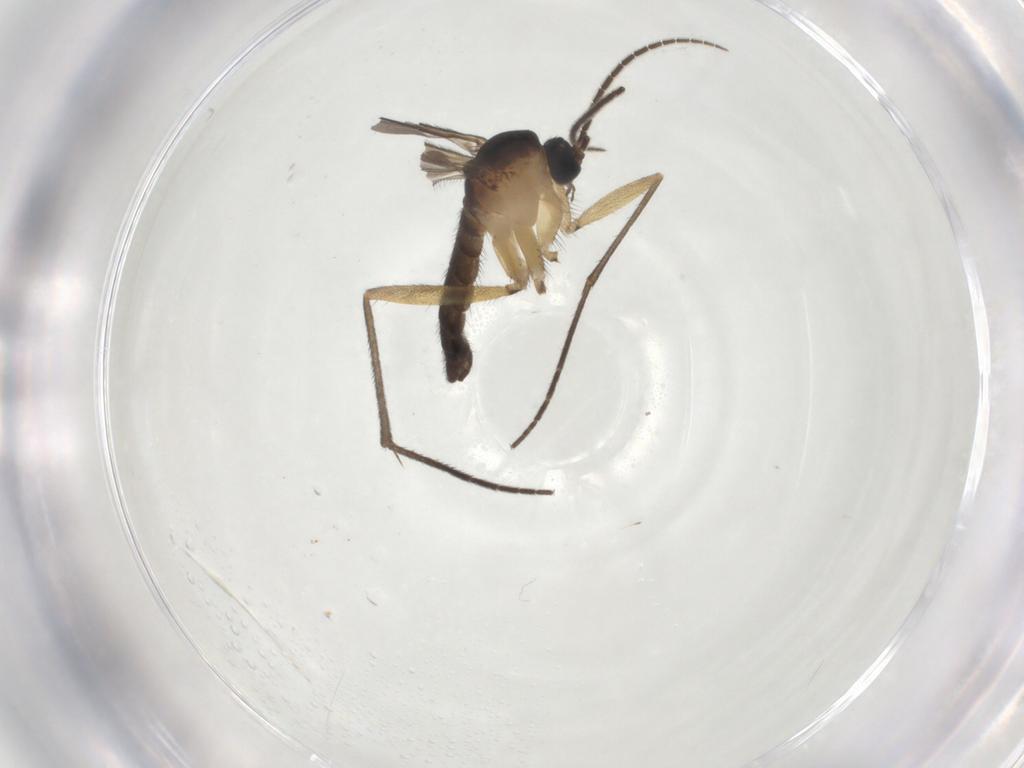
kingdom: Animalia
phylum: Arthropoda
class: Insecta
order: Diptera
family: Sciaridae
